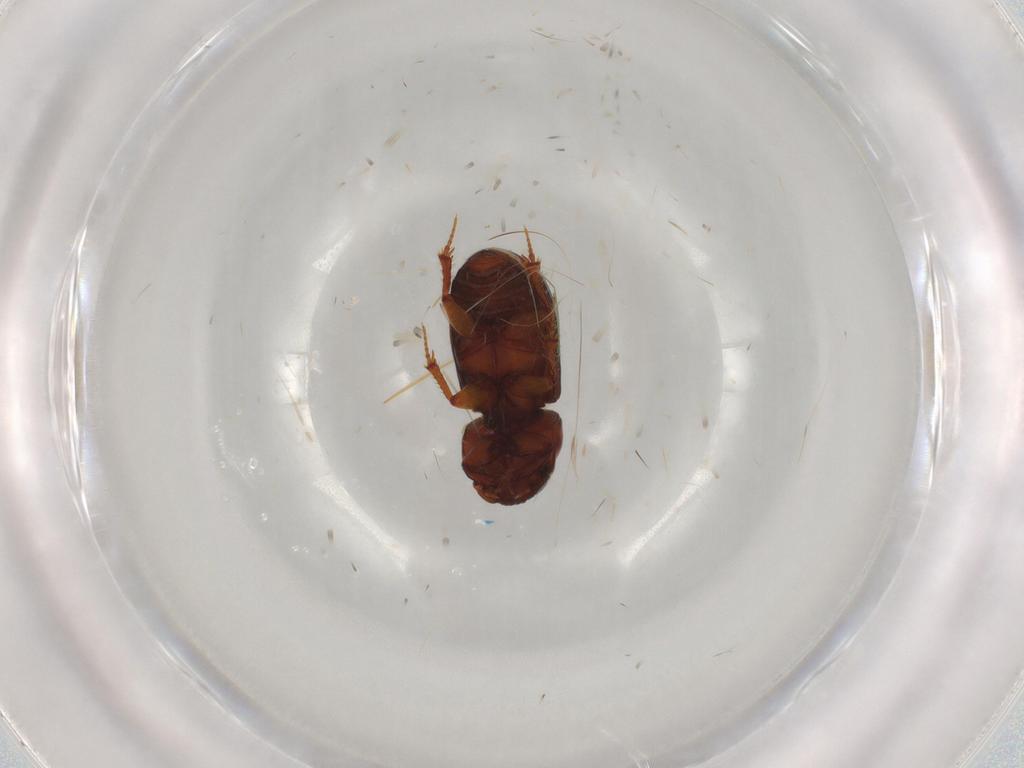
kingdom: Animalia
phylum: Arthropoda
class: Insecta
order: Coleoptera
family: Scarabaeidae
